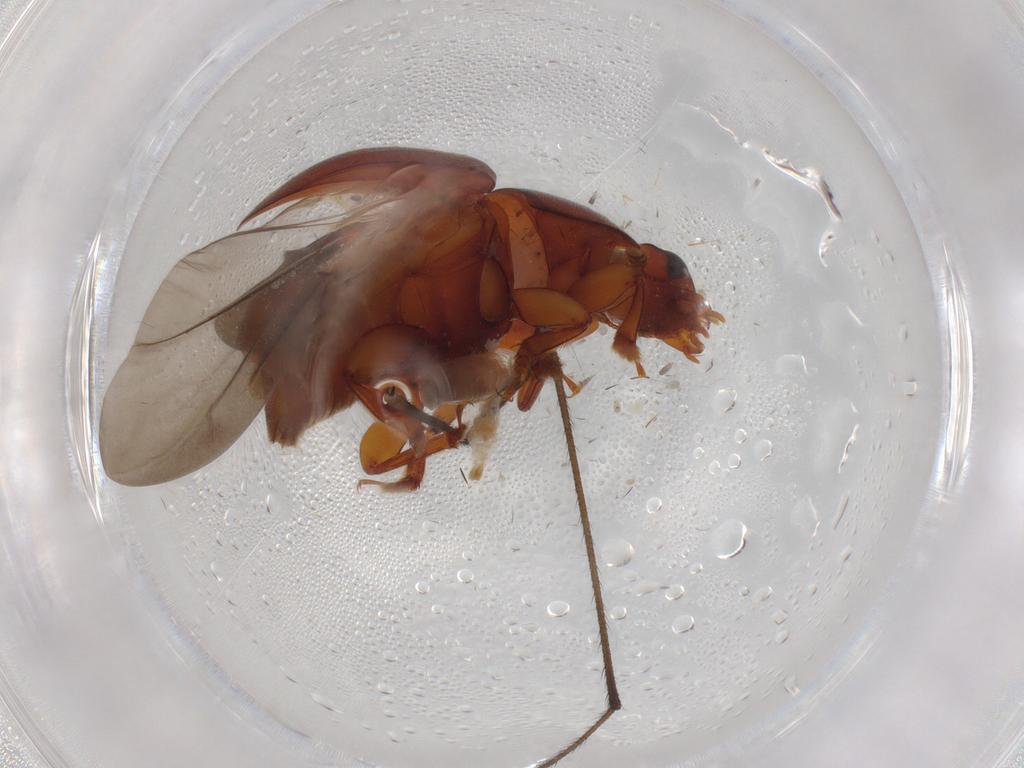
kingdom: Animalia
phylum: Arthropoda
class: Insecta
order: Coleoptera
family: Nitidulidae
